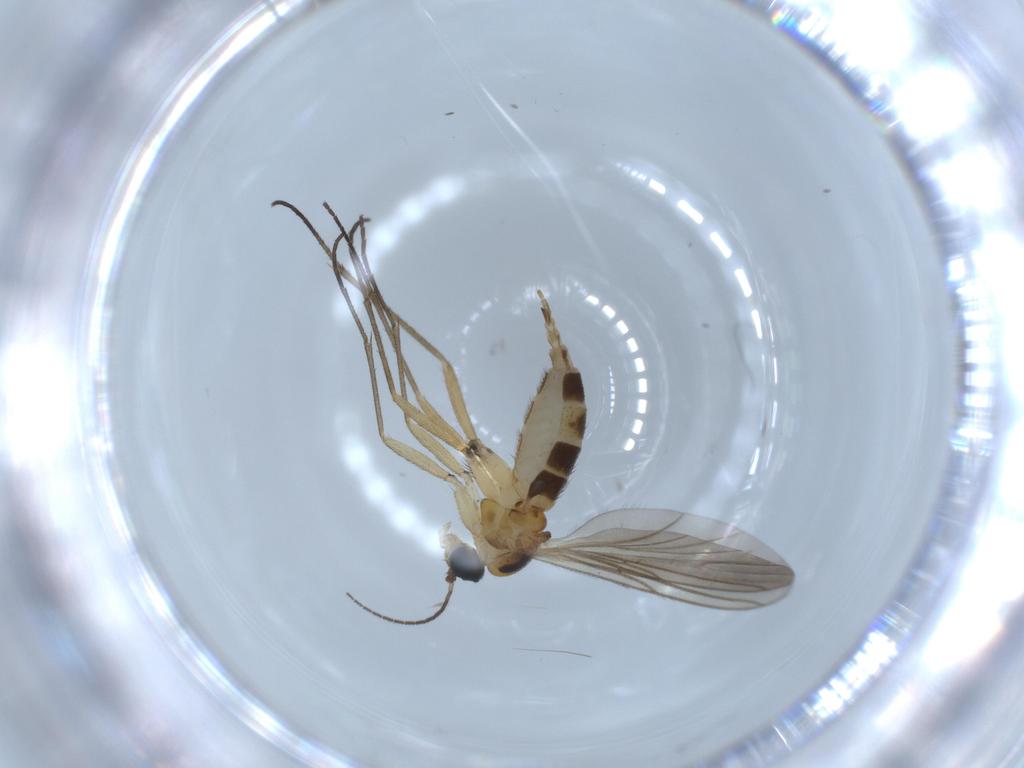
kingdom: Animalia
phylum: Arthropoda
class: Insecta
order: Diptera
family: Sciaridae
